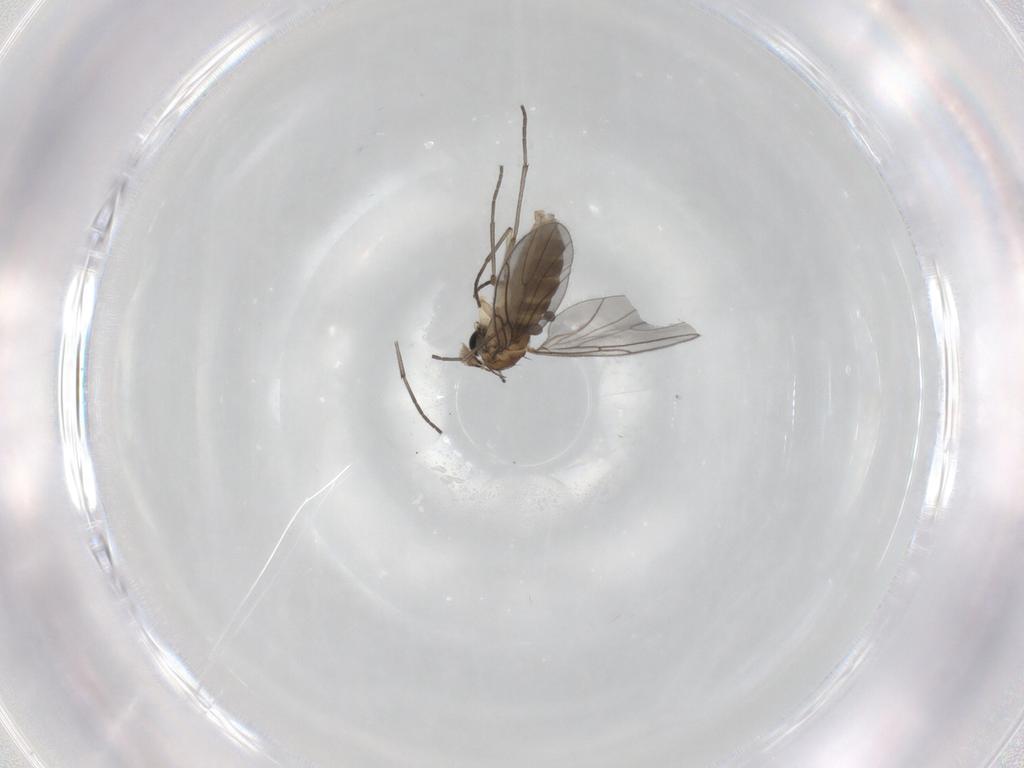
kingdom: Animalia
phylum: Arthropoda
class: Insecta
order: Diptera
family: Sciaridae
